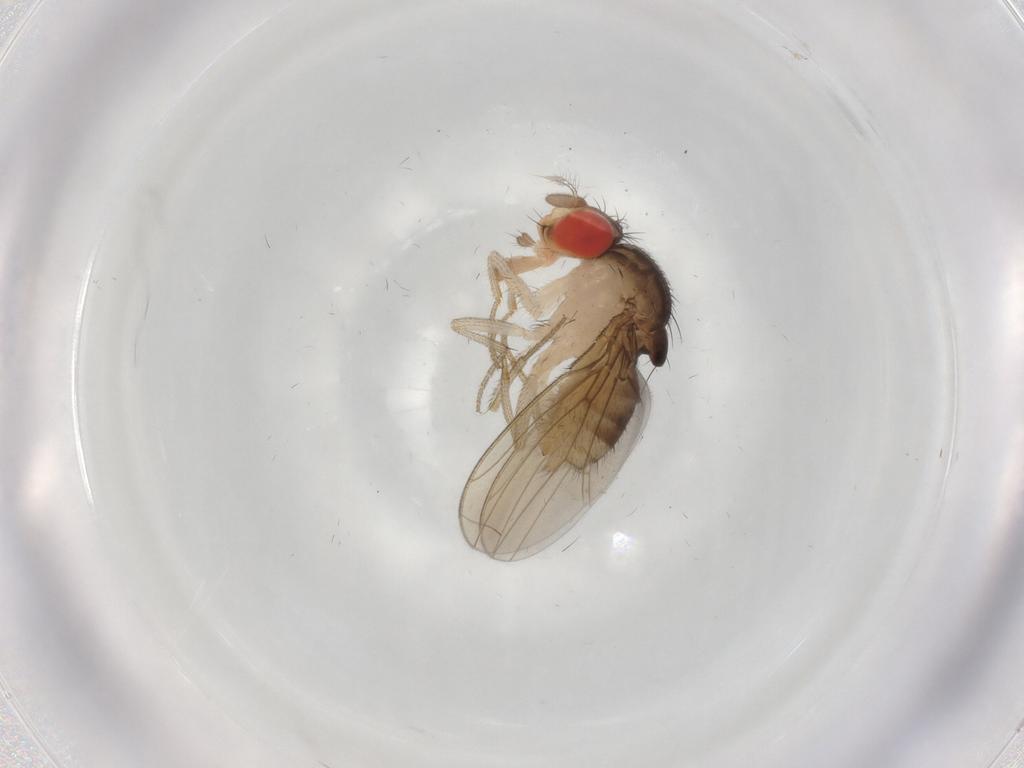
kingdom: Animalia
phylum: Arthropoda
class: Insecta
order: Diptera
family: Drosophilidae
